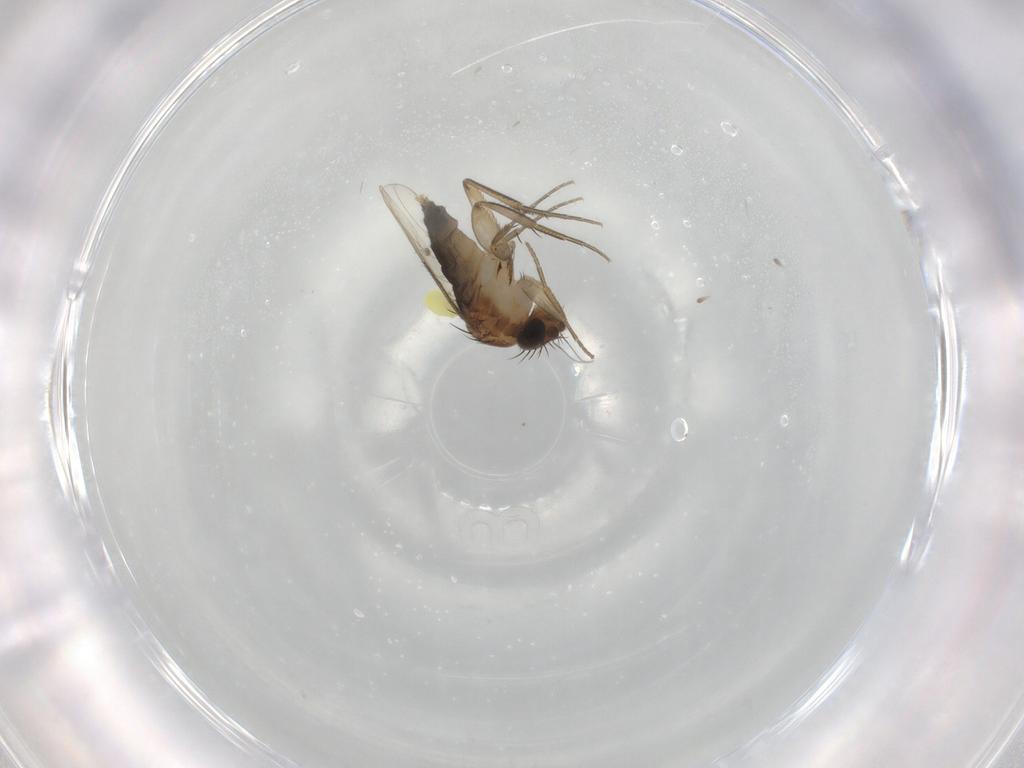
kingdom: Animalia
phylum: Arthropoda
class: Insecta
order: Diptera
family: Phoridae
